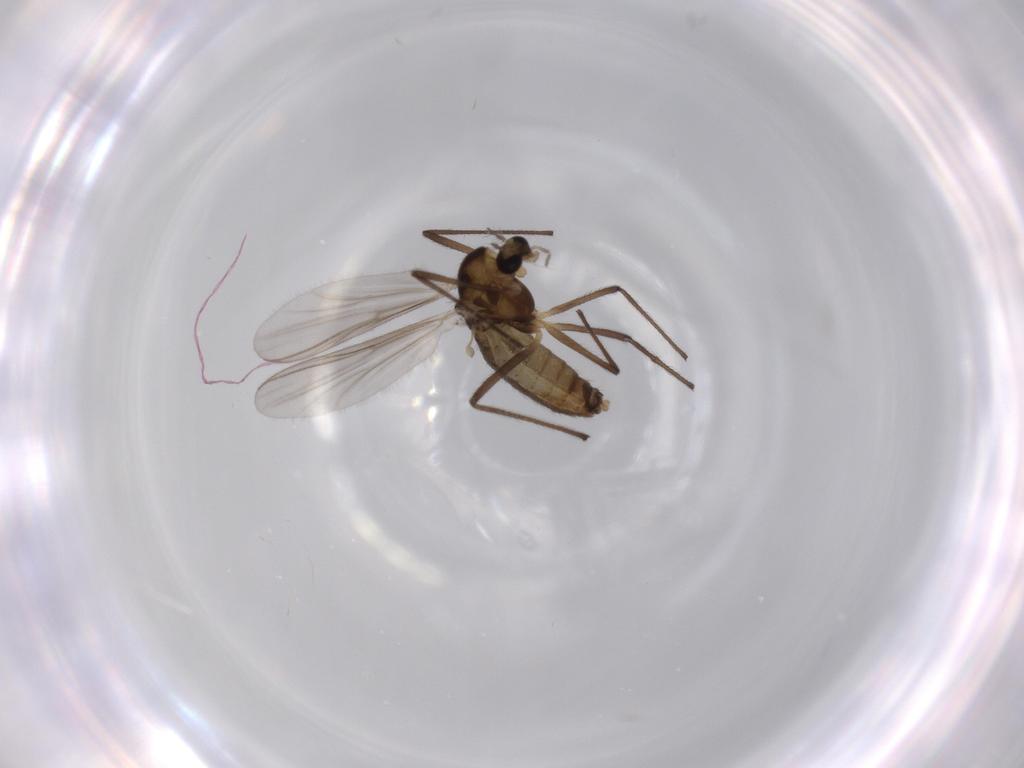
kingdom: Animalia
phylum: Arthropoda
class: Insecta
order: Diptera
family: Chironomidae
